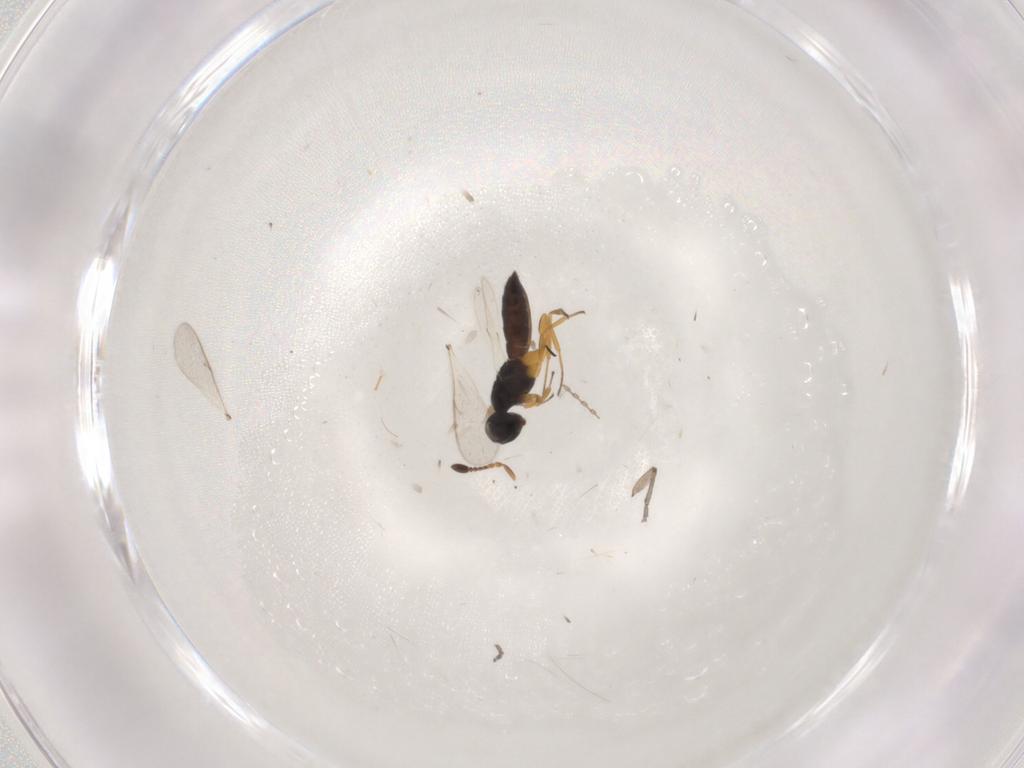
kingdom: Animalia
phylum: Arthropoda
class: Insecta
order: Hymenoptera
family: Scelionidae
